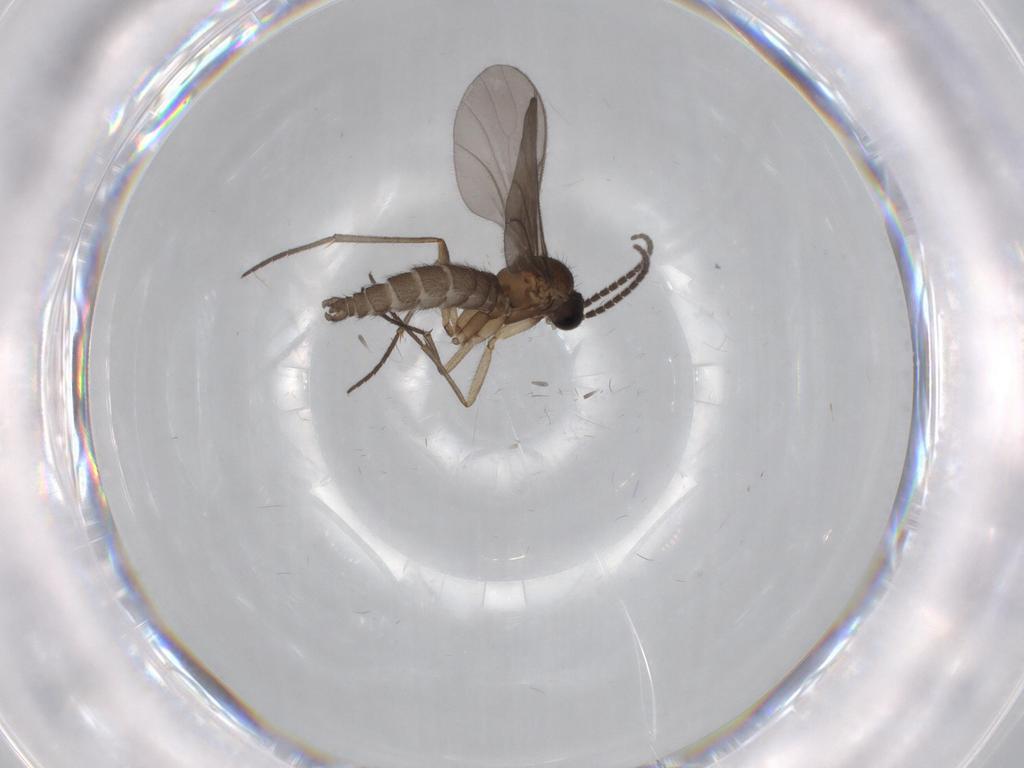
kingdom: Animalia
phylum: Arthropoda
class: Insecta
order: Diptera
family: Sciaridae
